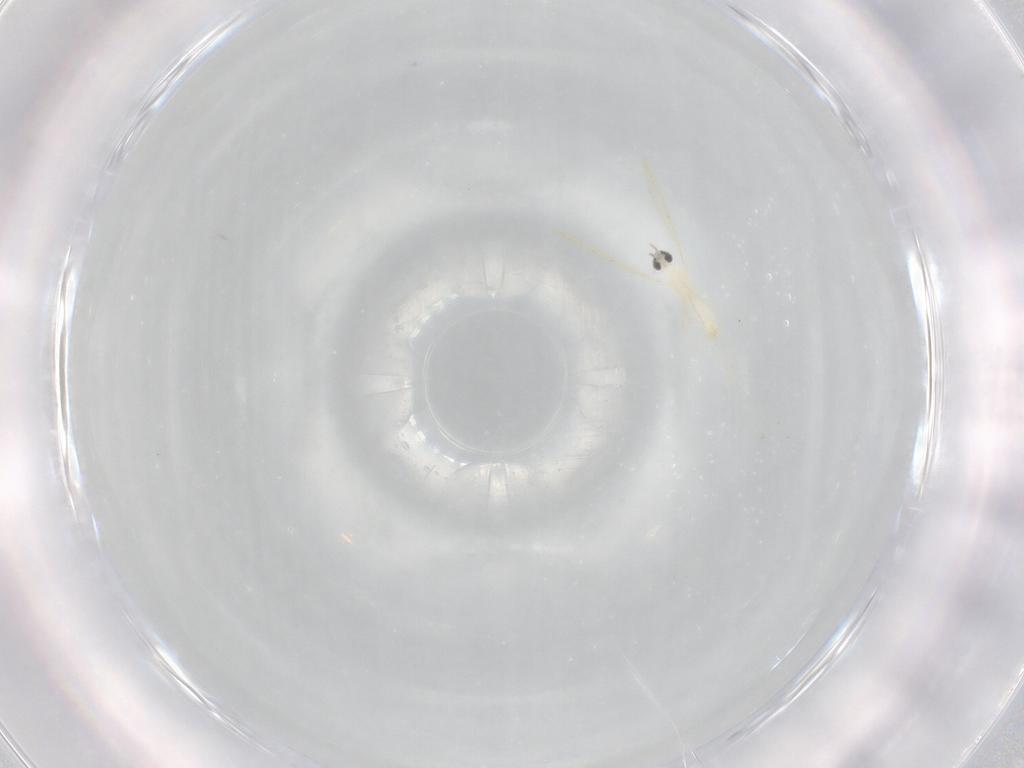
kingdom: Animalia
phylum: Arthropoda
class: Insecta
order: Diptera
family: Cecidomyiidae
